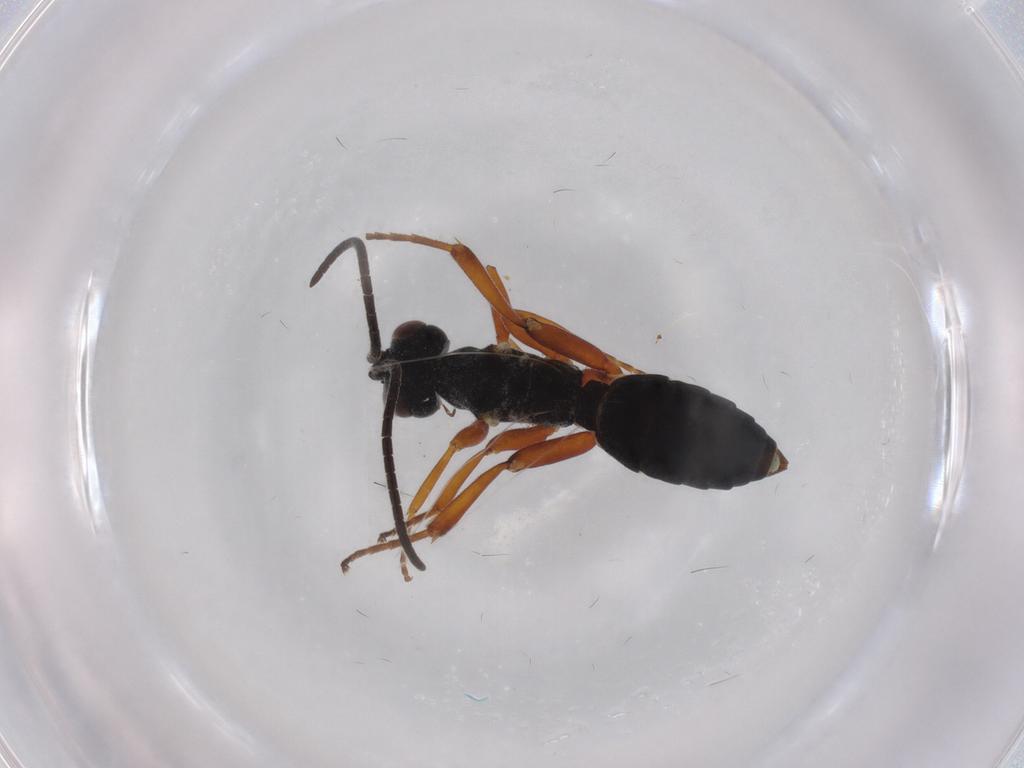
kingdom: Animalia
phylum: Arthropoda
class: Insecta
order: Hymenoptera
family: Ichneumonidae
